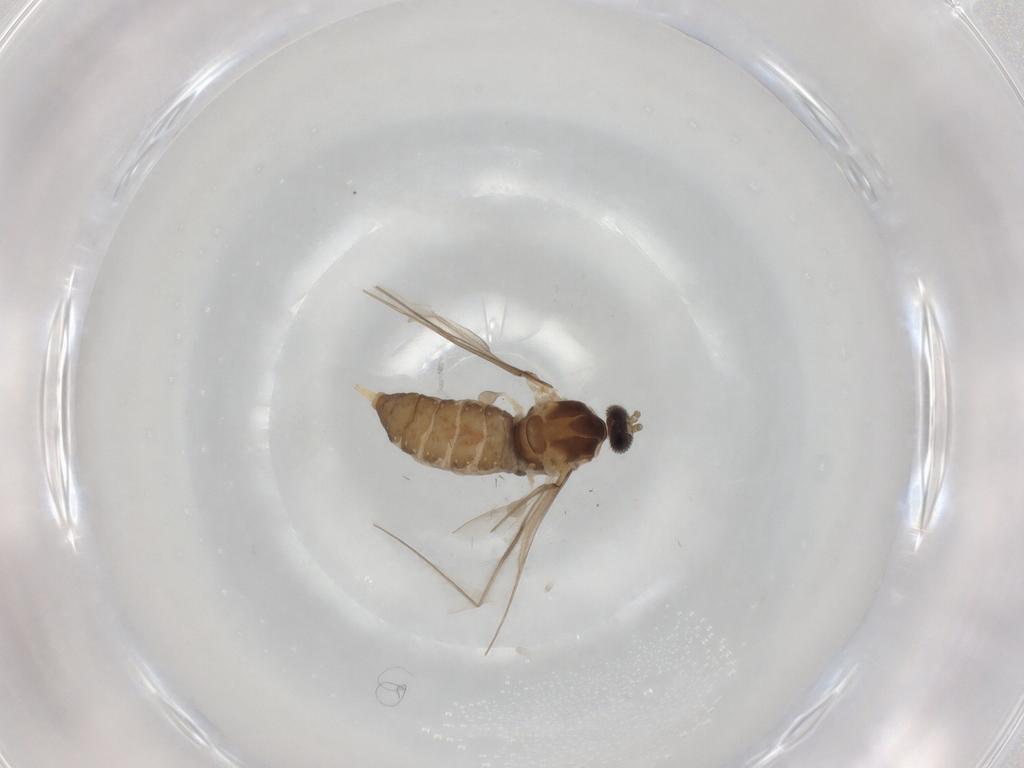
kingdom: Animalia
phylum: Arthropoda
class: Insecta
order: Diptera
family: Cecidomyiidae
